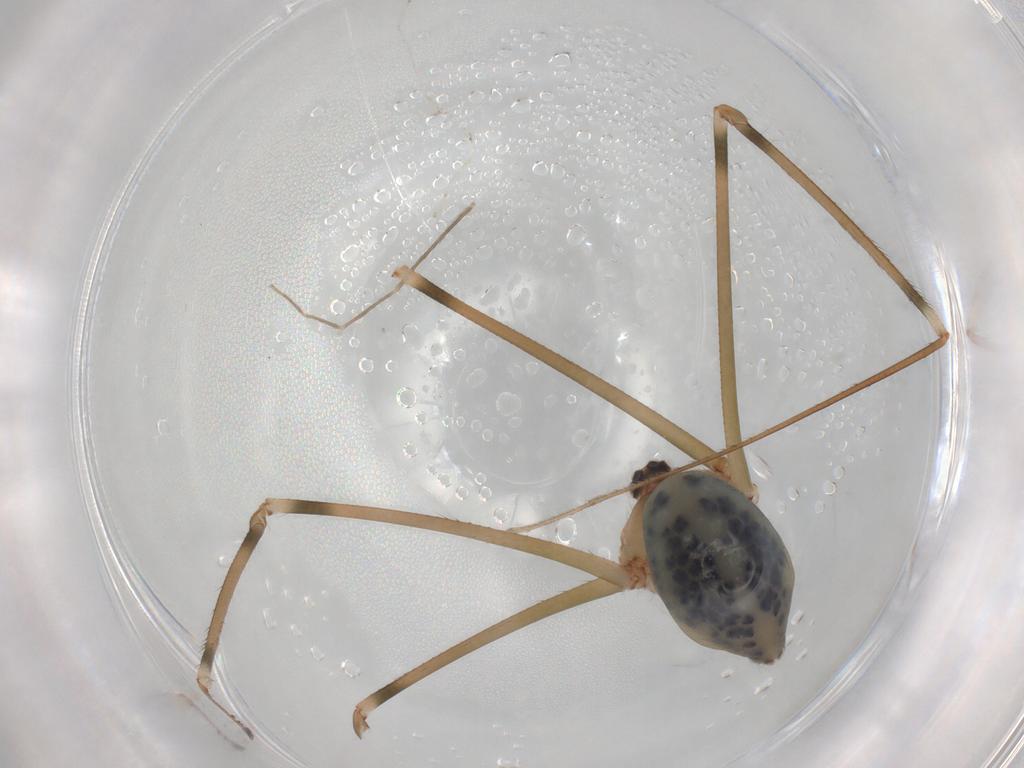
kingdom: Animalia
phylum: Arthropoda
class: Arachnida
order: Araneae
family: Pholcidae
